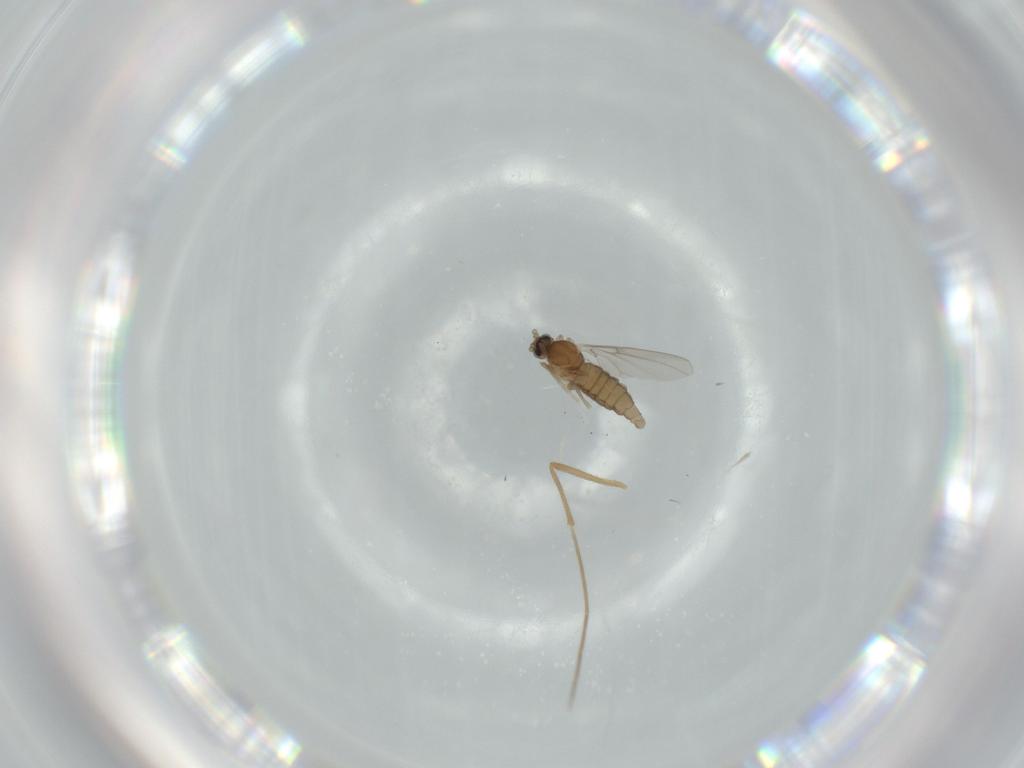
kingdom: Animalia
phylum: Arthropoda
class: Insecta
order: Diptera
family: Cecidomyiidae
